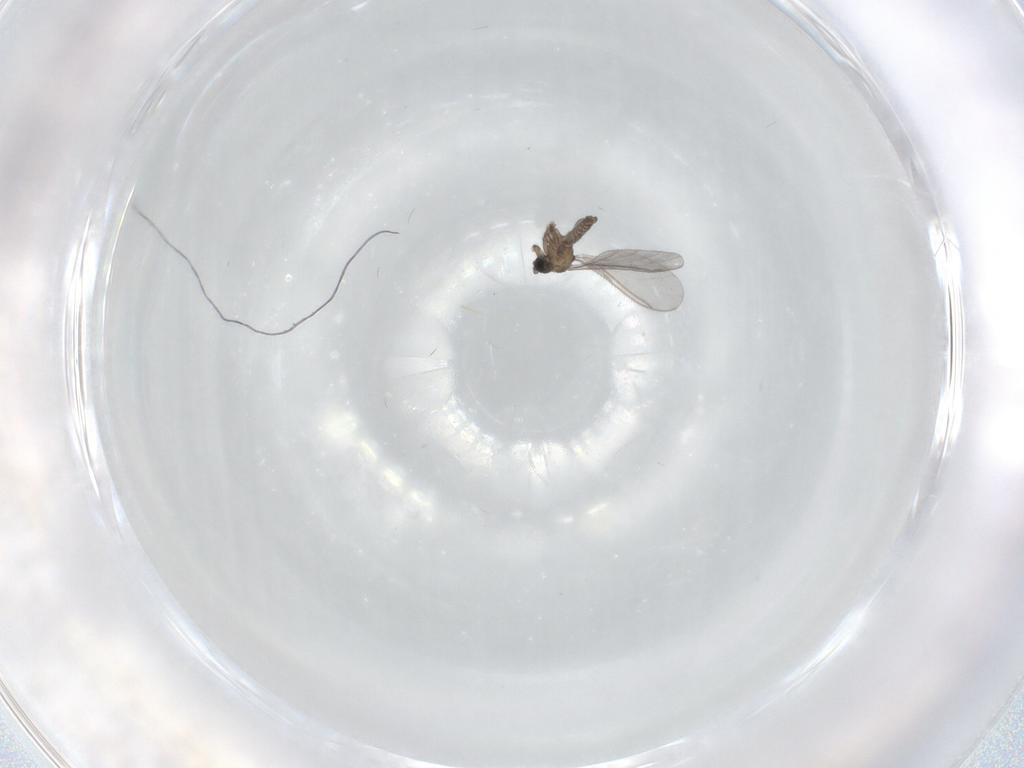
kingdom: Animalia
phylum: Arthropoda
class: Insecta
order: Diptera
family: Sciaridae
